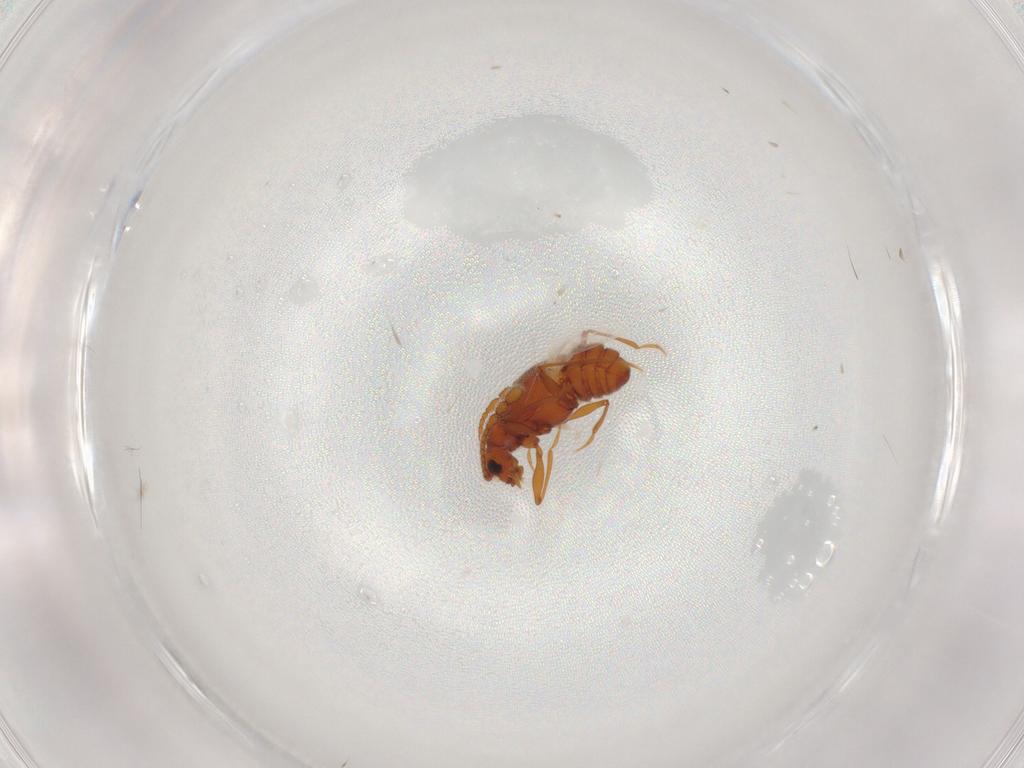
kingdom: Animalia
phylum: Arthropoda
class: Insecta
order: Coleoptera
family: Staphylinidae
